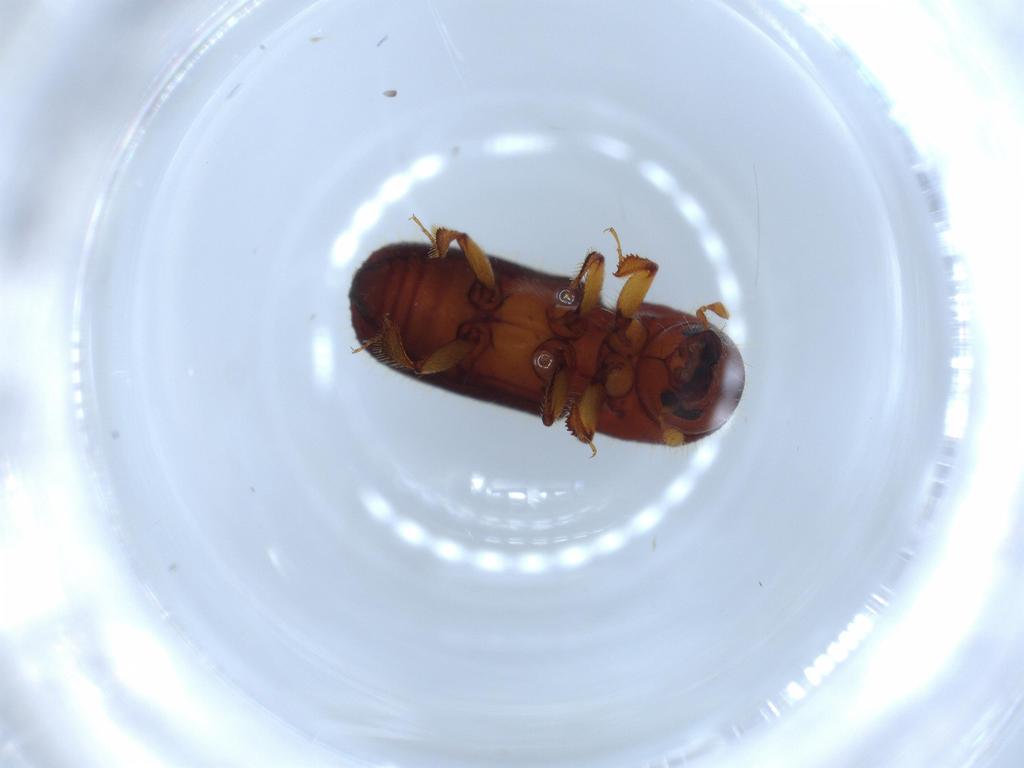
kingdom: Animalia
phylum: Arthropoda
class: Insecta
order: Coleoptera
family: Curculionidae
